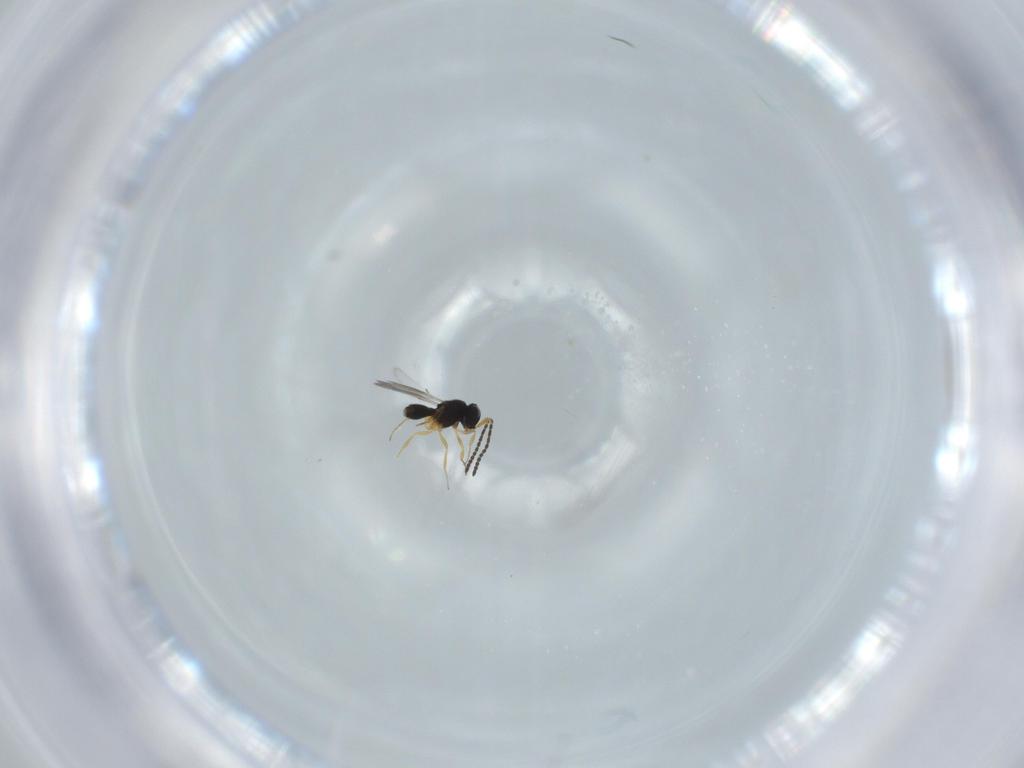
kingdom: Animalia
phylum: Arthropoda
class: Insecta
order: Hymenoptera
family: Scelionidae
